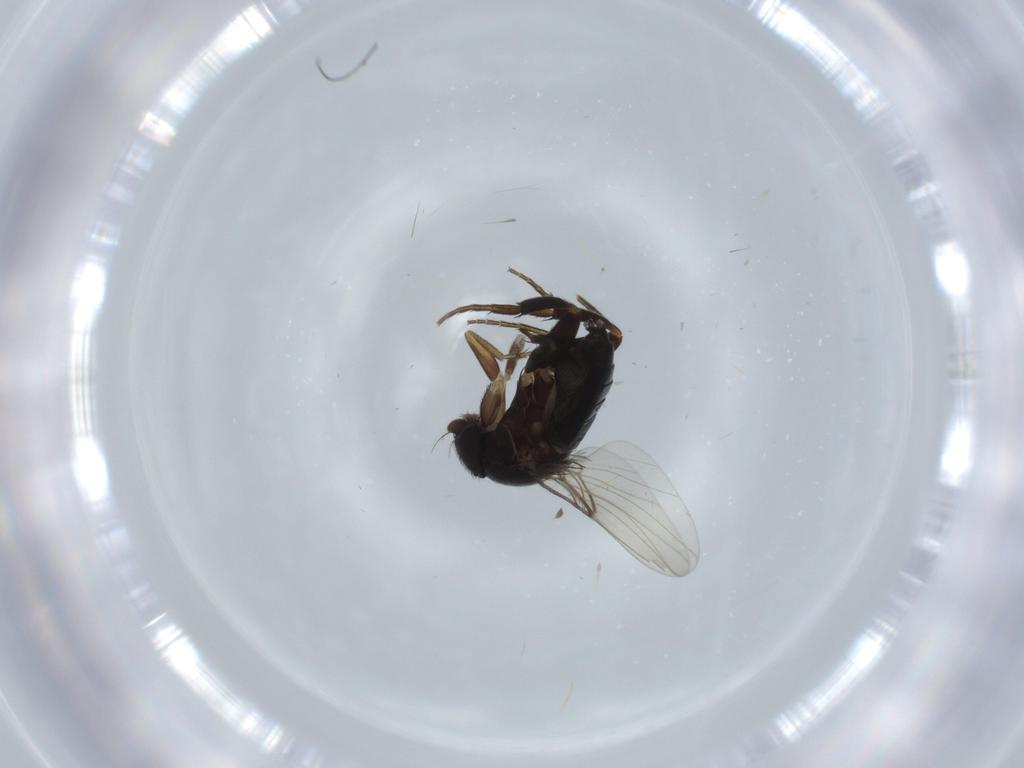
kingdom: Animalia
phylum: Arthropoda
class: Insecta
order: Diptera
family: Phoridae
